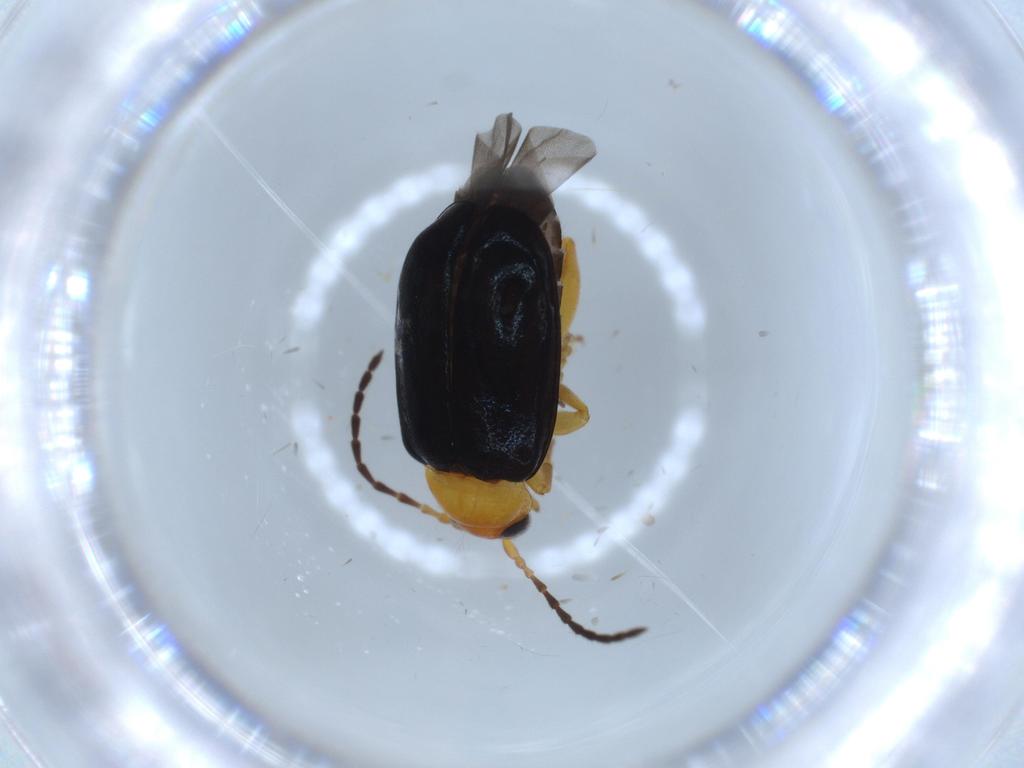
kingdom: Animalia
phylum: Arthropoda
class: Insecta
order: Coleoptera
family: Chrysomelidae
